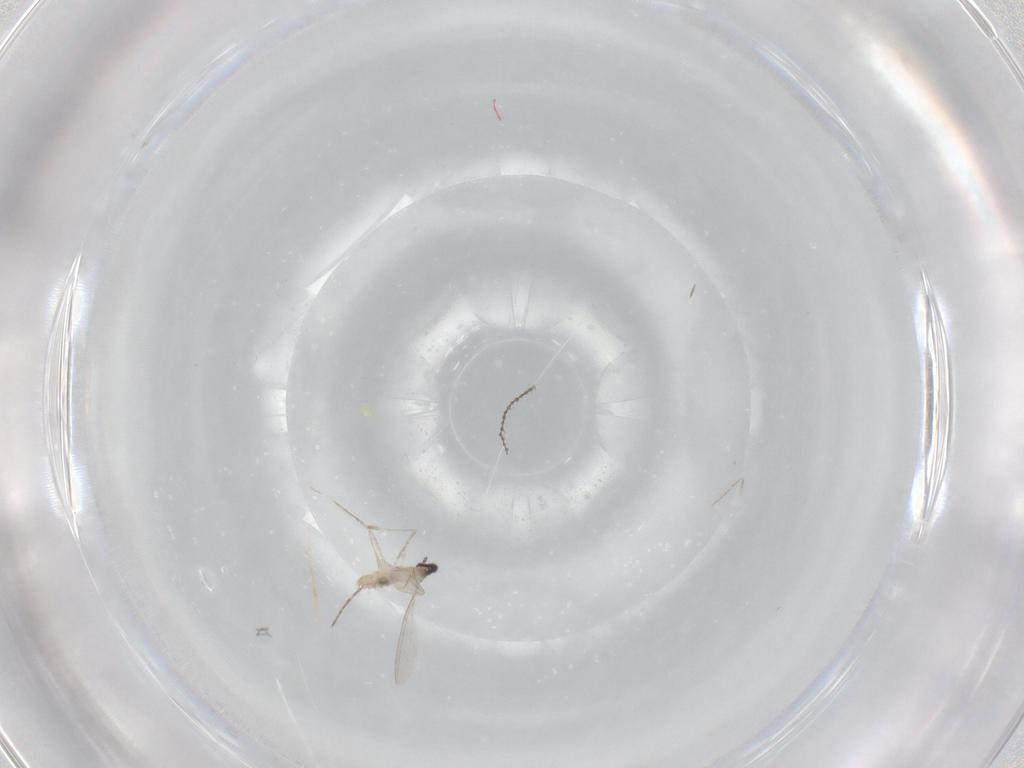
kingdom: Animalia
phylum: Arthropoda
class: Insecta
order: Diptera
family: Cecidomyiidae
